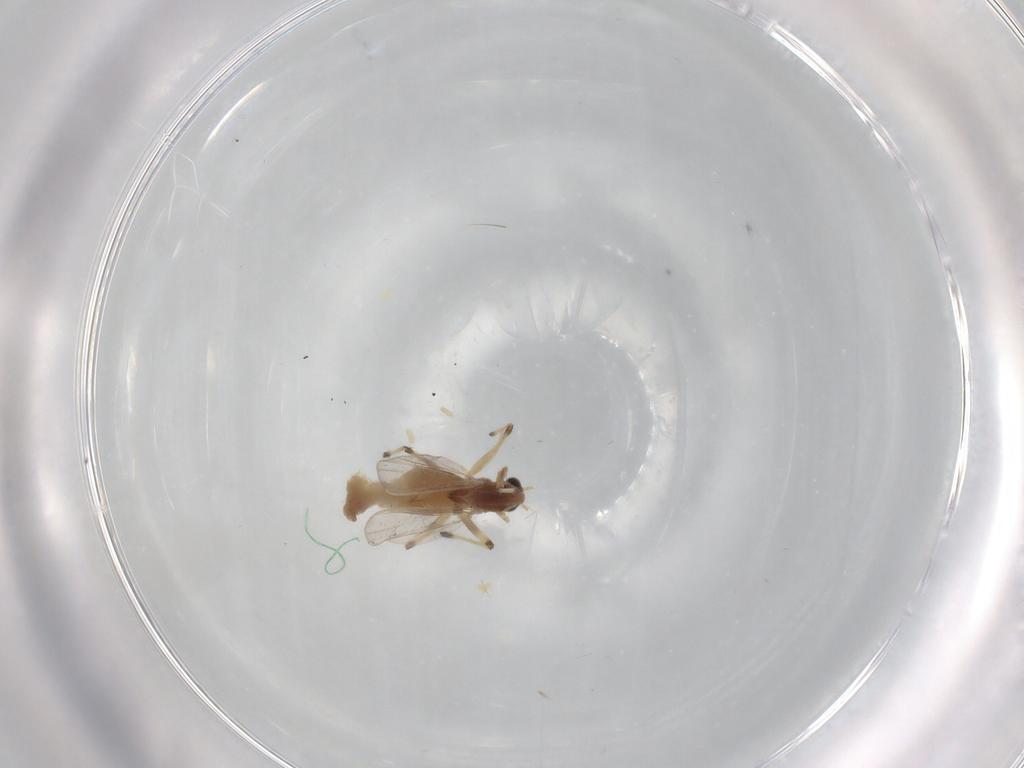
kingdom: Animalia
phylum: Arthropoda
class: Insecta
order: Diptera
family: Chironomidae
